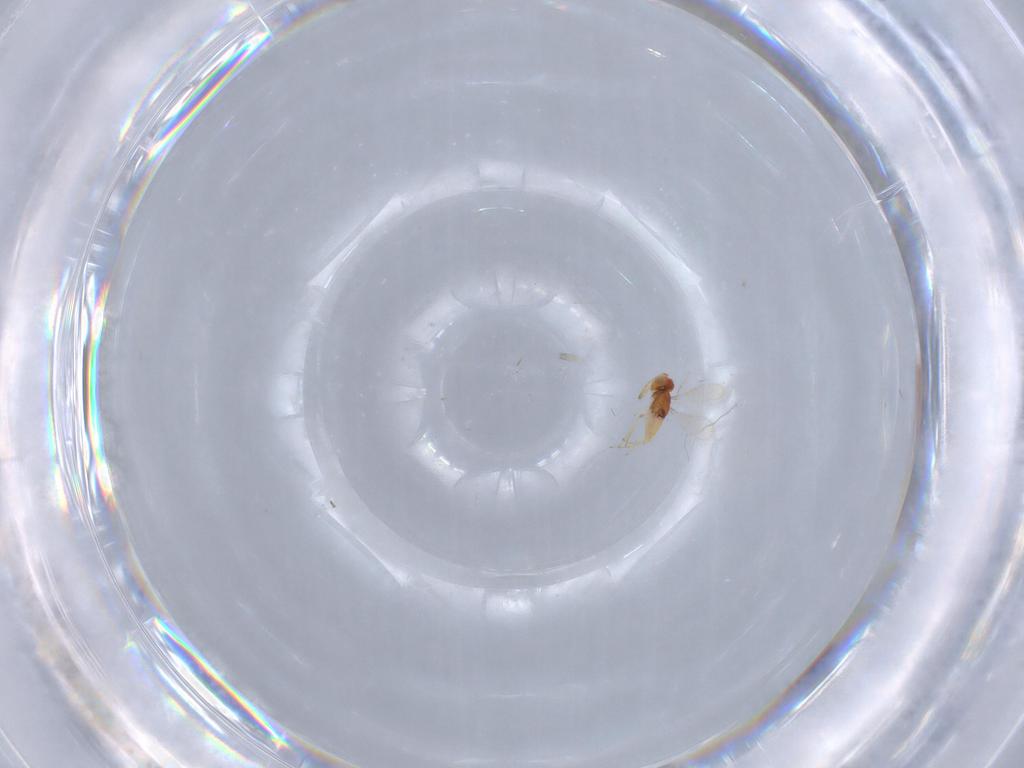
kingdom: Animalia
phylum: Arthropoda
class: Insecta
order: Hymenoptera
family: Aphelinidae
